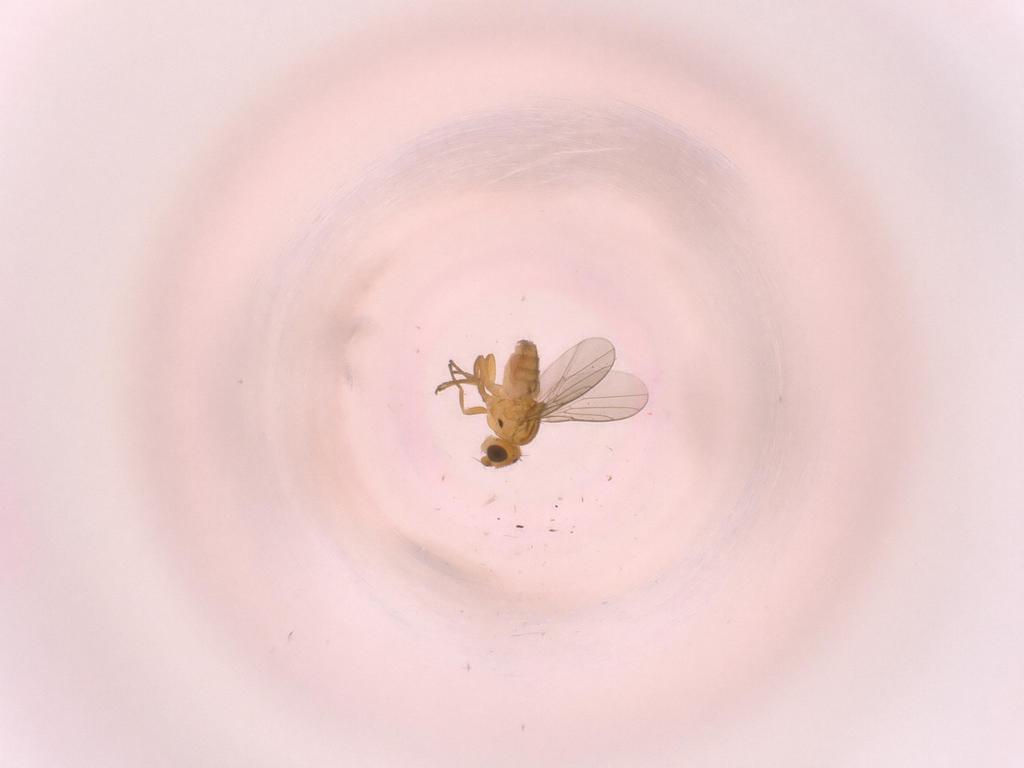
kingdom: Animalia
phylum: Arthropoda
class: Insecta
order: Diptera
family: Chloropidae
